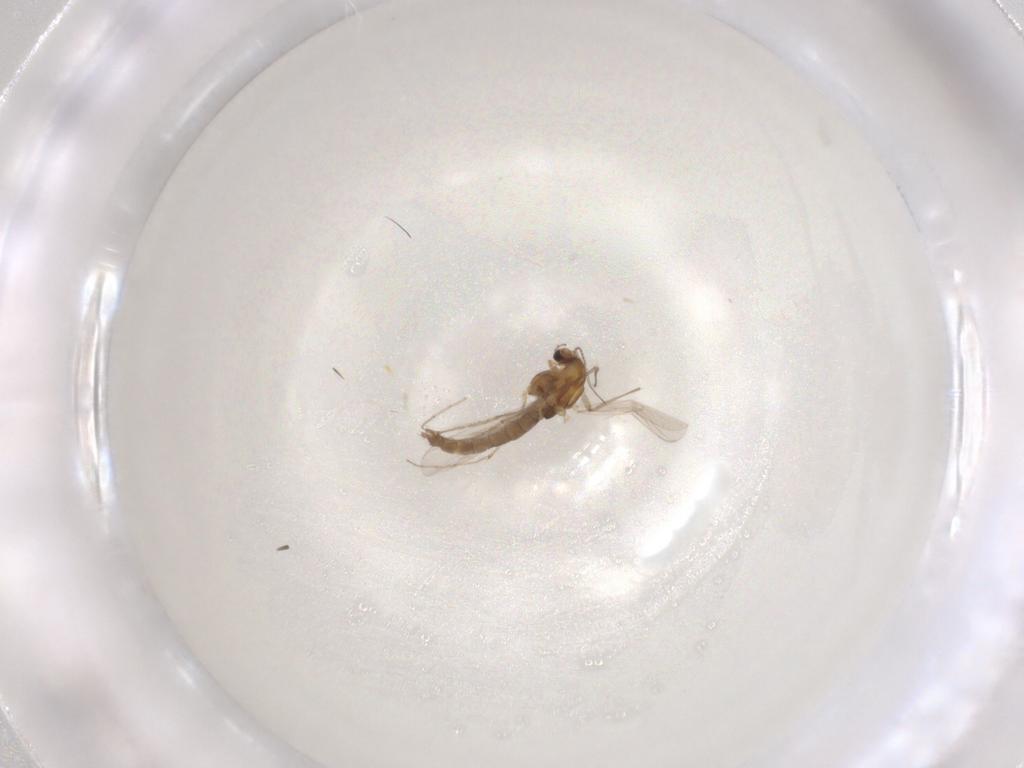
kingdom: Animalia
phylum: Arthropoda
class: Insecta
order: Diptera
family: Chironomidae
